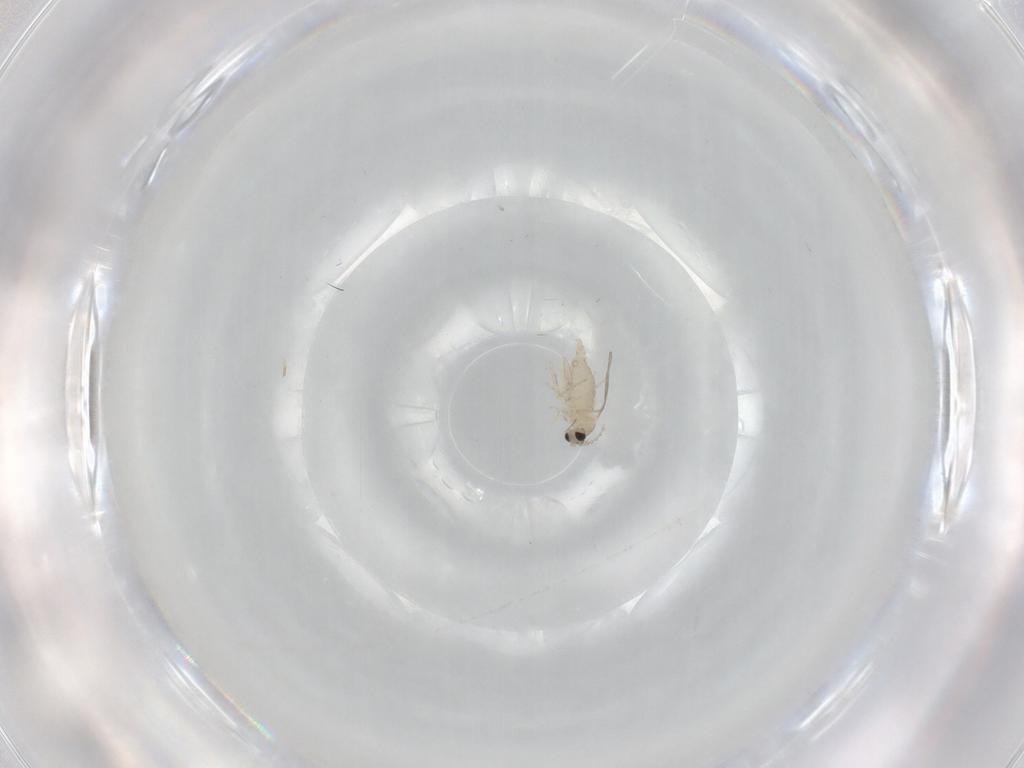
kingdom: Animalia
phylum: Arthropoda
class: Insecta
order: Diptera
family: Cecidomyiidae
